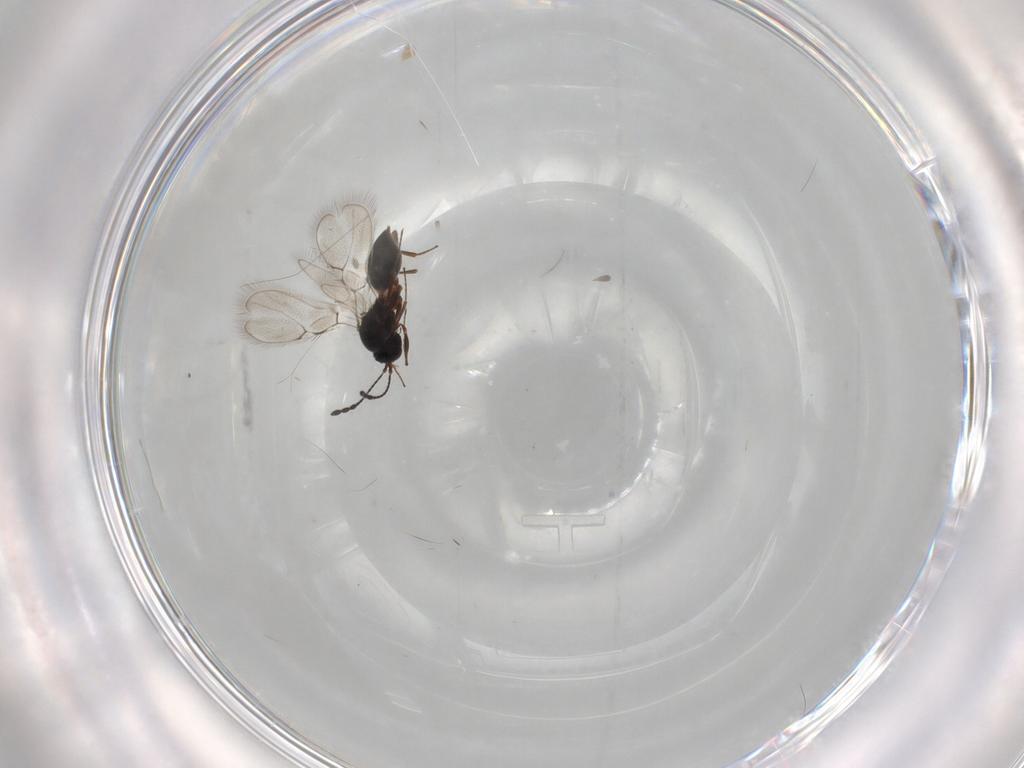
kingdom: Animalia
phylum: Arthropoda
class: Insecta
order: Hymenoptera
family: Figitidae
